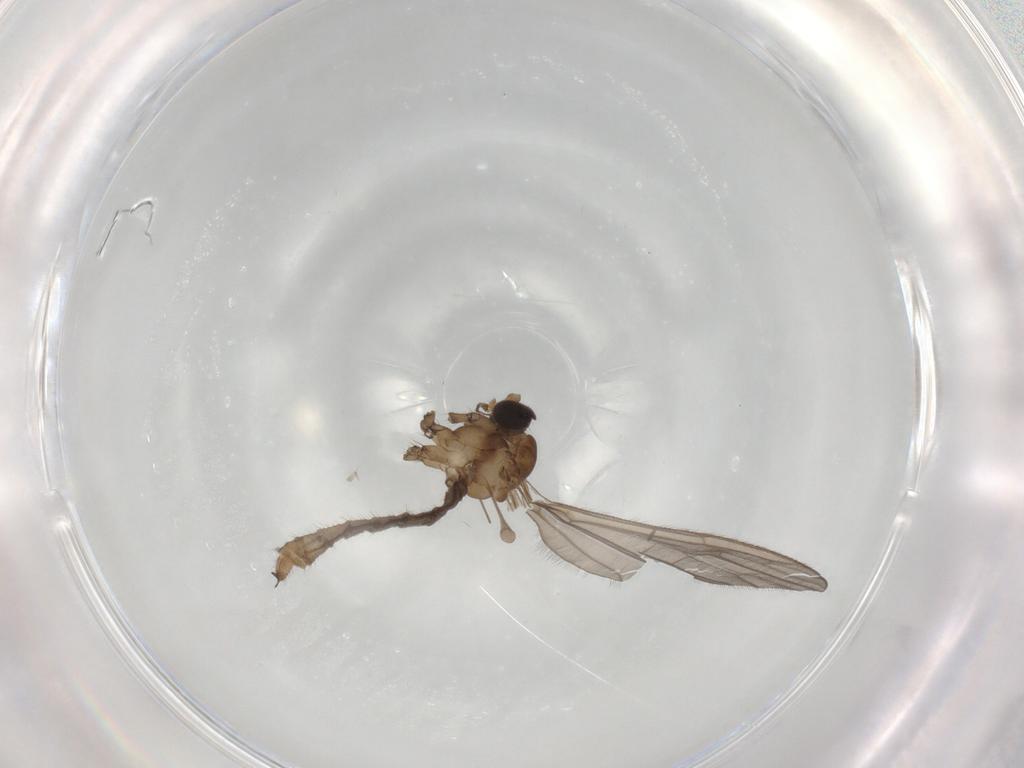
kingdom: Animalia
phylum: Arthropoda
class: Insecta
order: Diptera
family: Limoniidae
